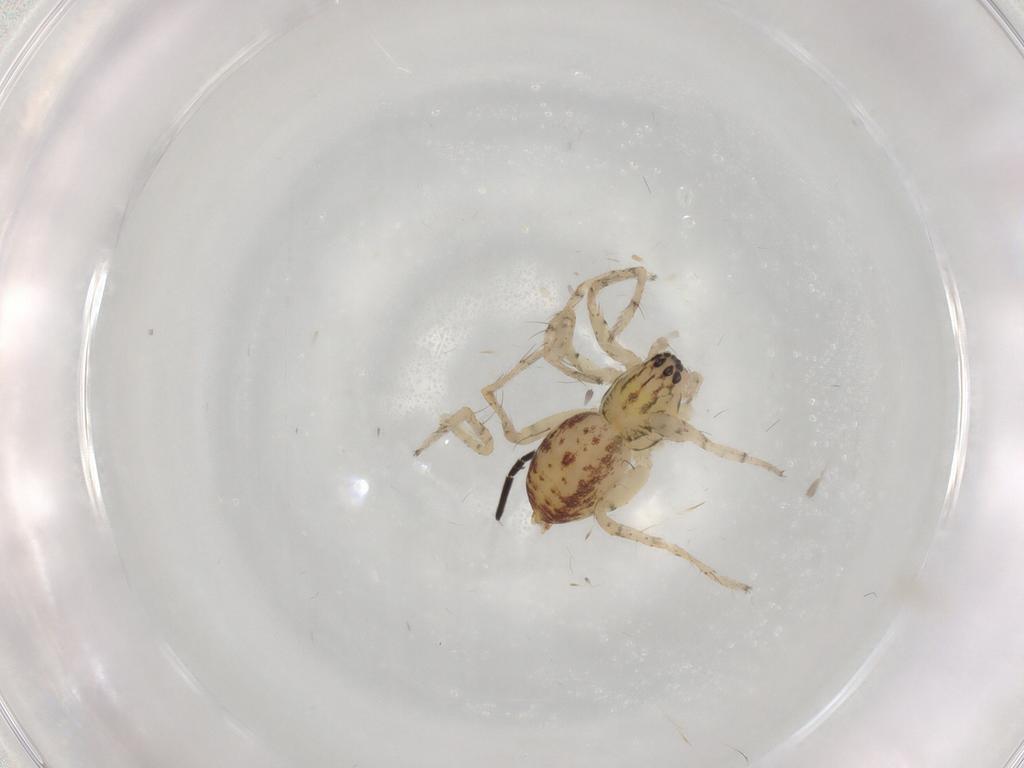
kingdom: Animalia
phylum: Arthropoda
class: Arachnida
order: Araneae
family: Anyphaenidae
